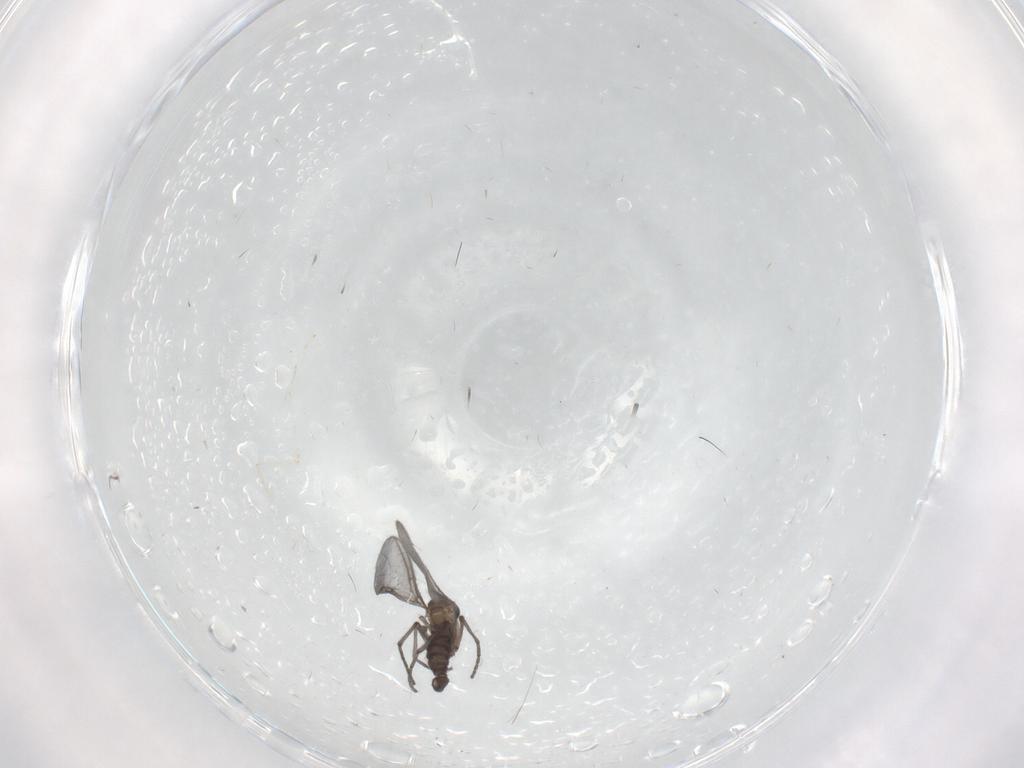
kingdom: Animalia
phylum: Arthropoda
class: Insecta
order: Diptera
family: Sciaridae
